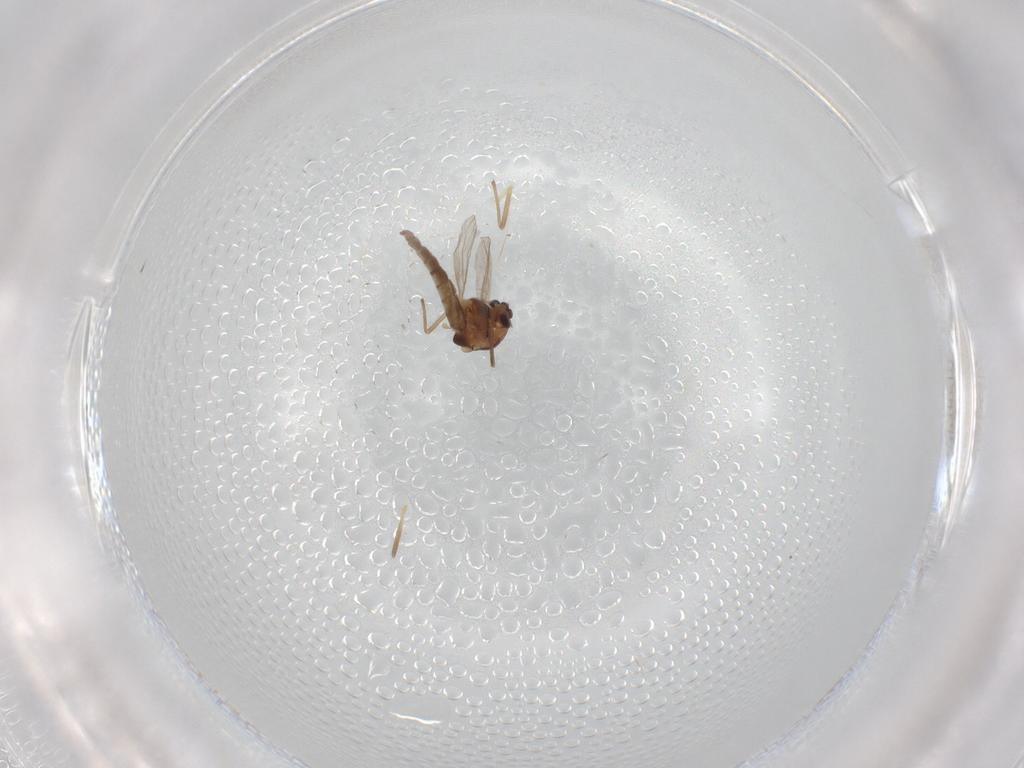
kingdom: Animalia
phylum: Arthropoda
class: Insecta
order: Diptera
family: Chironomidae
